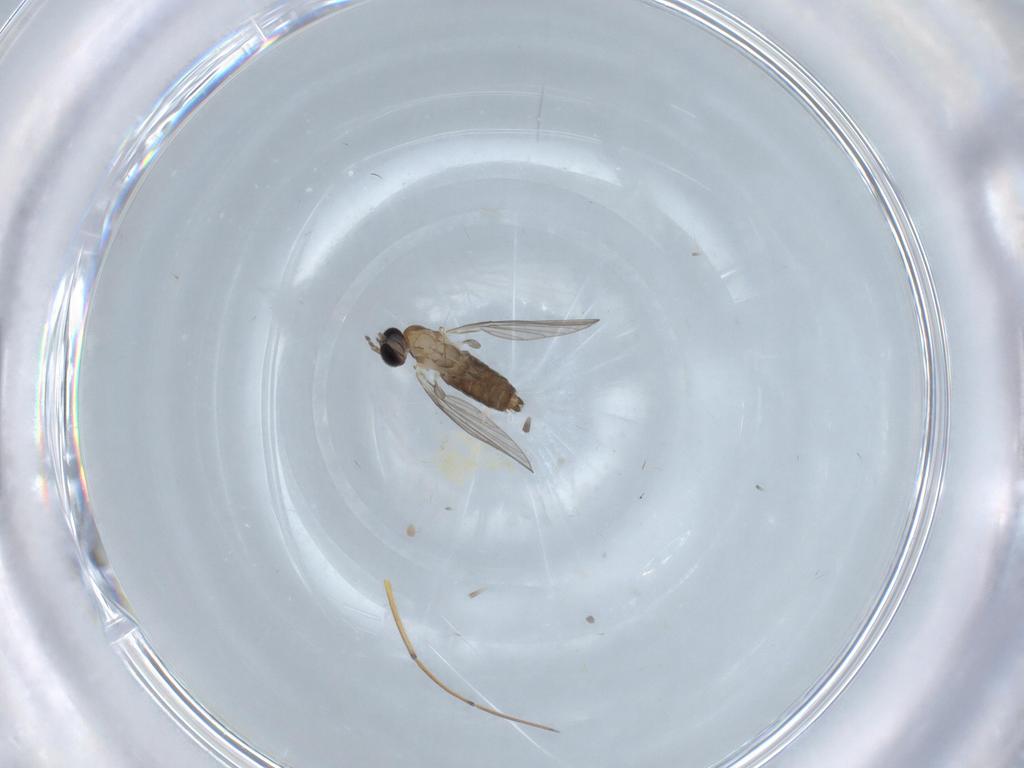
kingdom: Animalia
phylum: Arthropoda
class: Insecta
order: Diptera
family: Psychodidae
